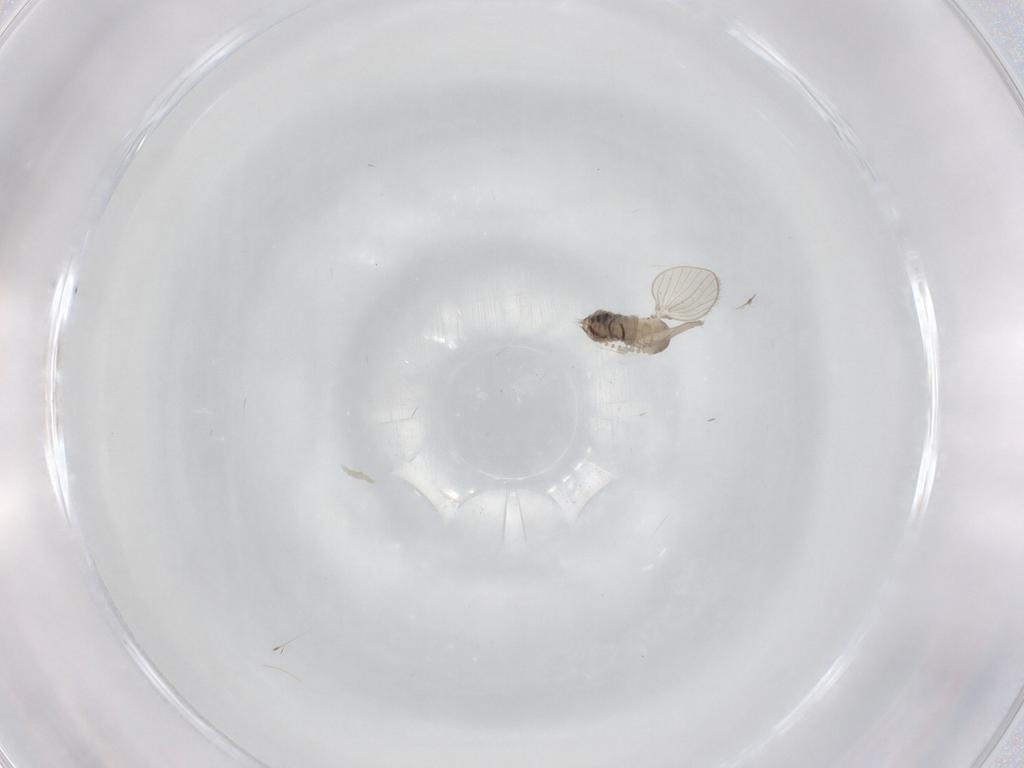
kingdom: Animalia
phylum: Arthropoda
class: Insecta
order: Diptera
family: Psychodidae
